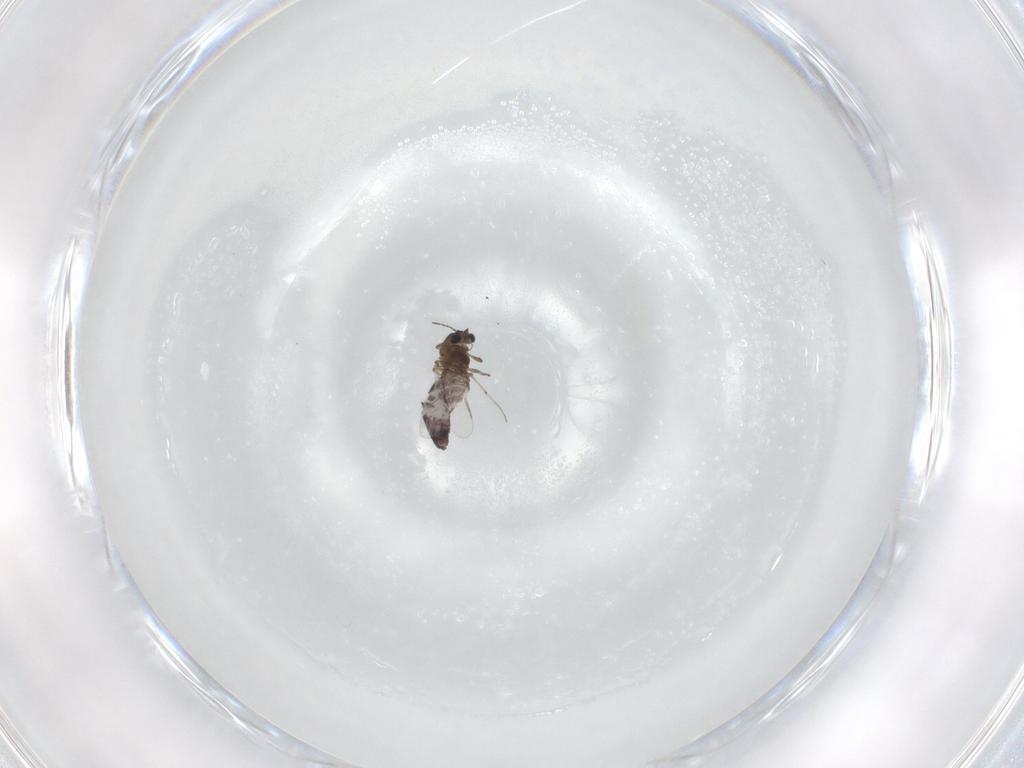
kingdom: Animalia
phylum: Arthropoda
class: Insecta
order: Diptera
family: Chironomidae
